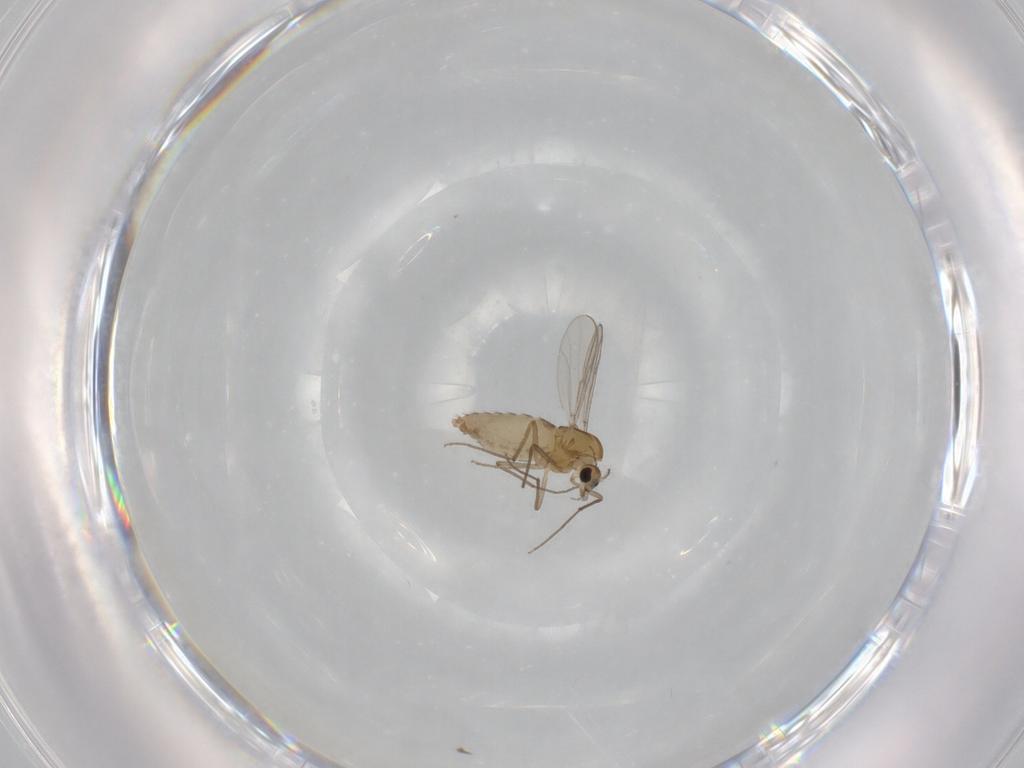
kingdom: Animalia
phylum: Arthropoda
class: Insecta
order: Diptera
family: Chironomidae
